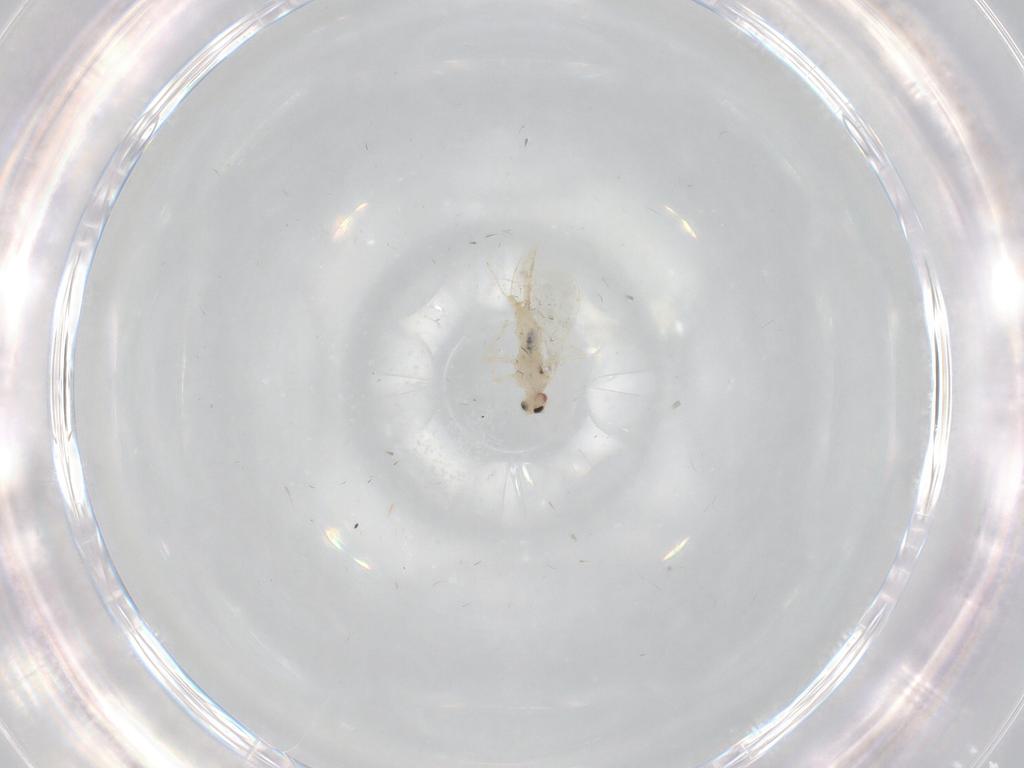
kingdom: Animalia
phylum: Arthropoda
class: Insecta
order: Diptera
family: Cecidomyiidae
